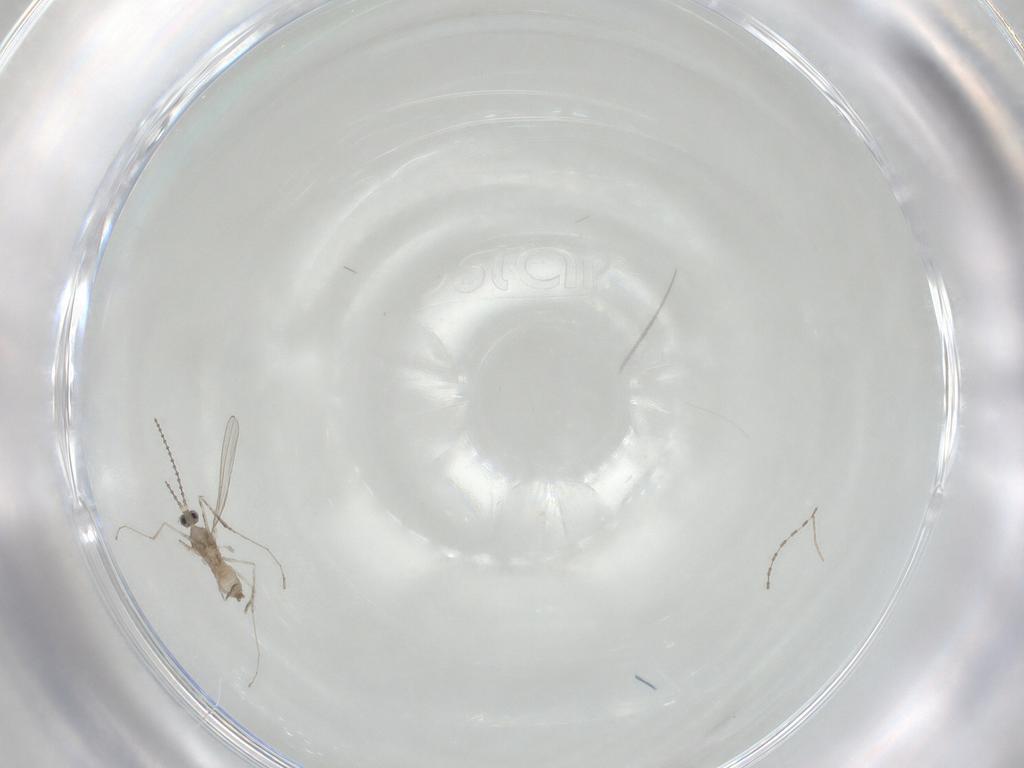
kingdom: Animalia
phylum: Arthropoda
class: Insecta
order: Diptera
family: Cecidomyiidae
